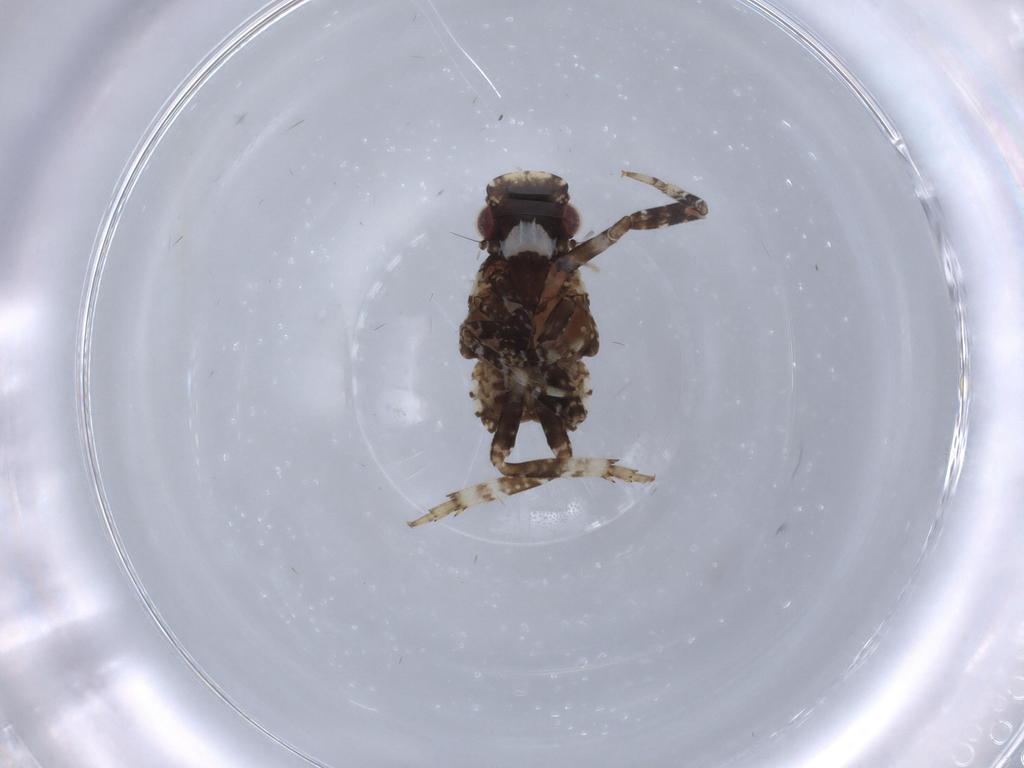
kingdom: Animalia
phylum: Arthropoda
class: Insecta
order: Hemiptera
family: Fulgoridae
